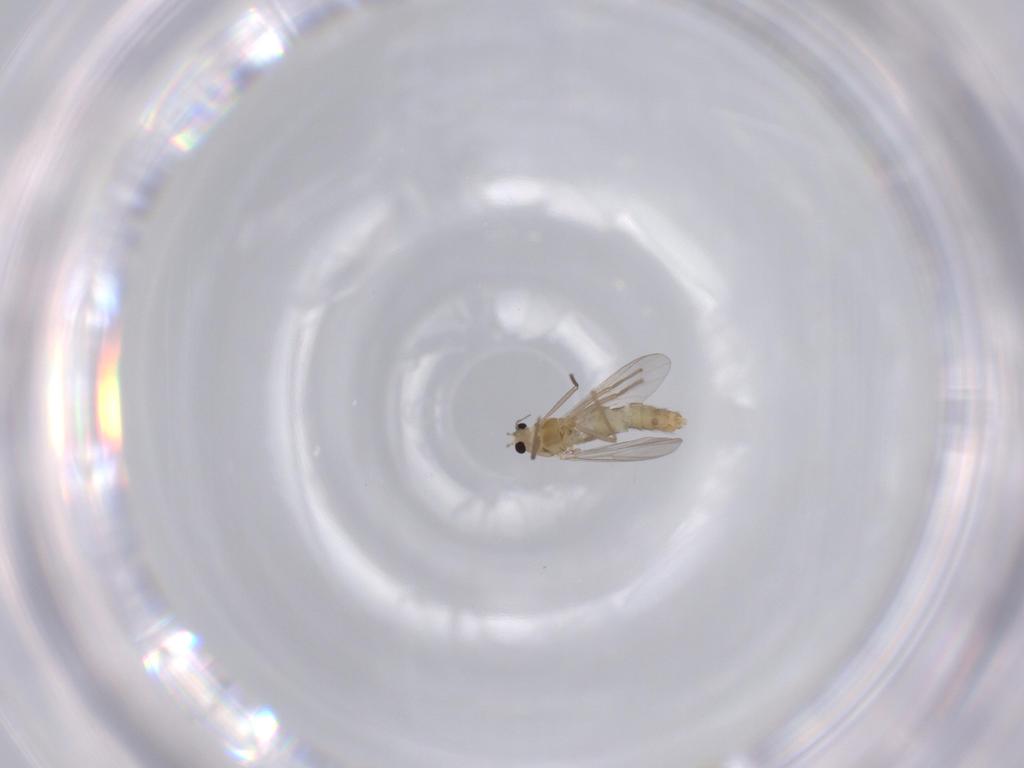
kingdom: Animalia
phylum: Arthropoda
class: Insecta
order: Diptera
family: Chironomidae
